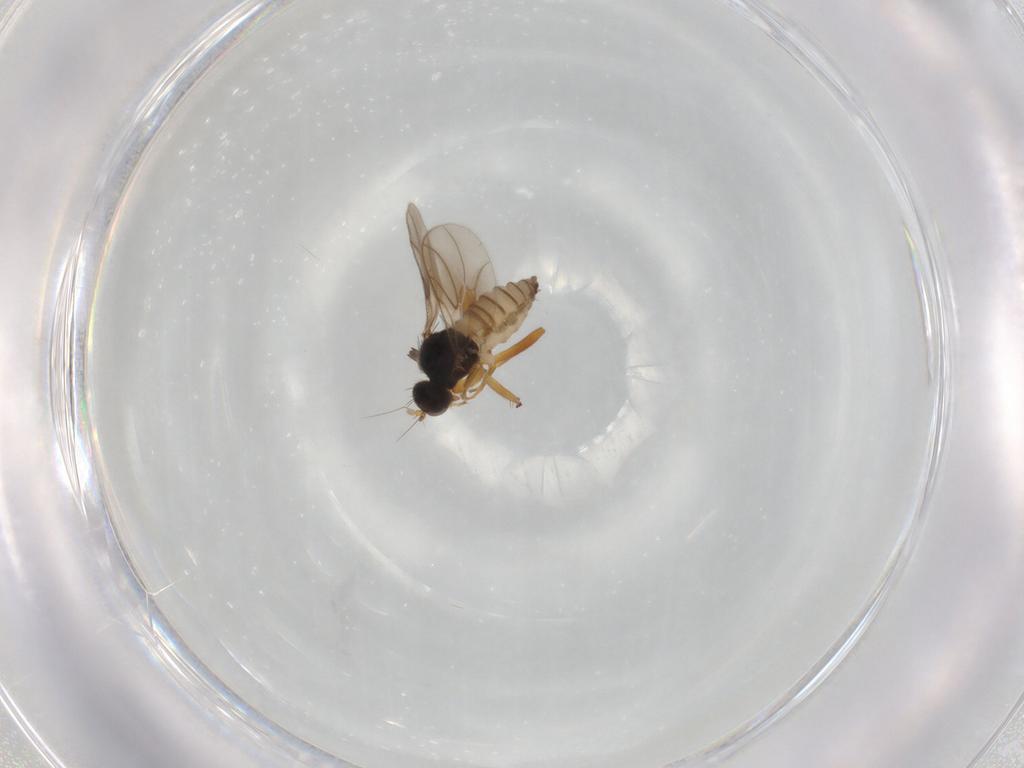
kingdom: Animalia
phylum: Arthropoda
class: Insecta
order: Diptera
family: Hybotidae
